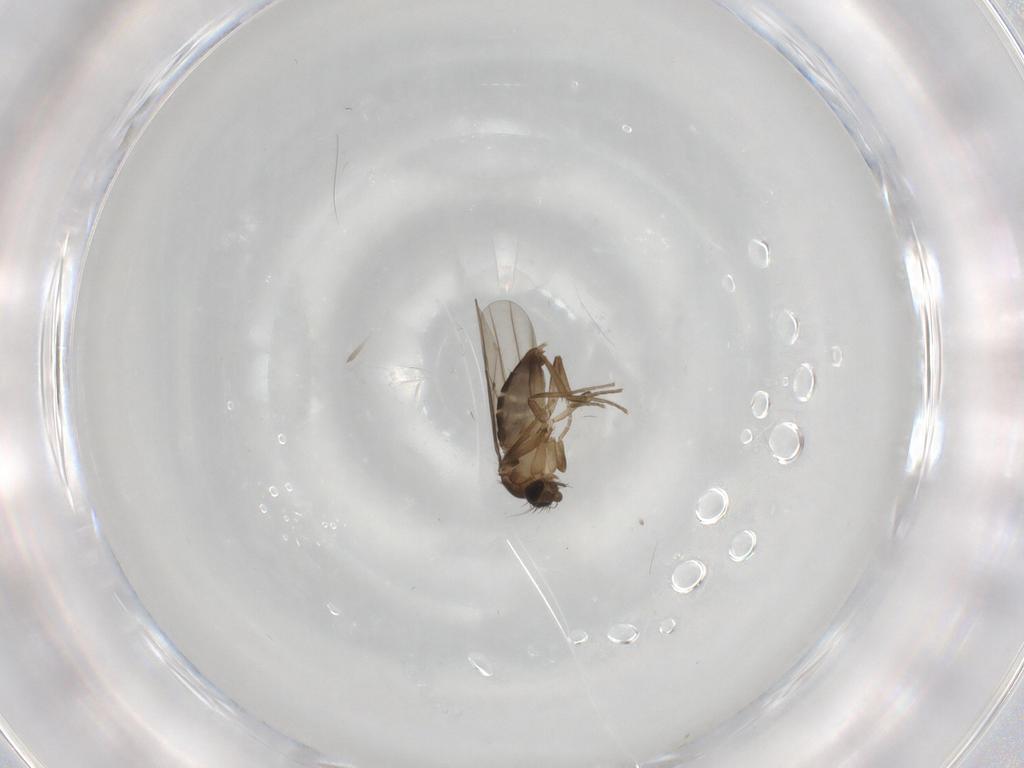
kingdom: Animalia
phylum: Arthropoda
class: Insecta
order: Diptera
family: Phoridae
